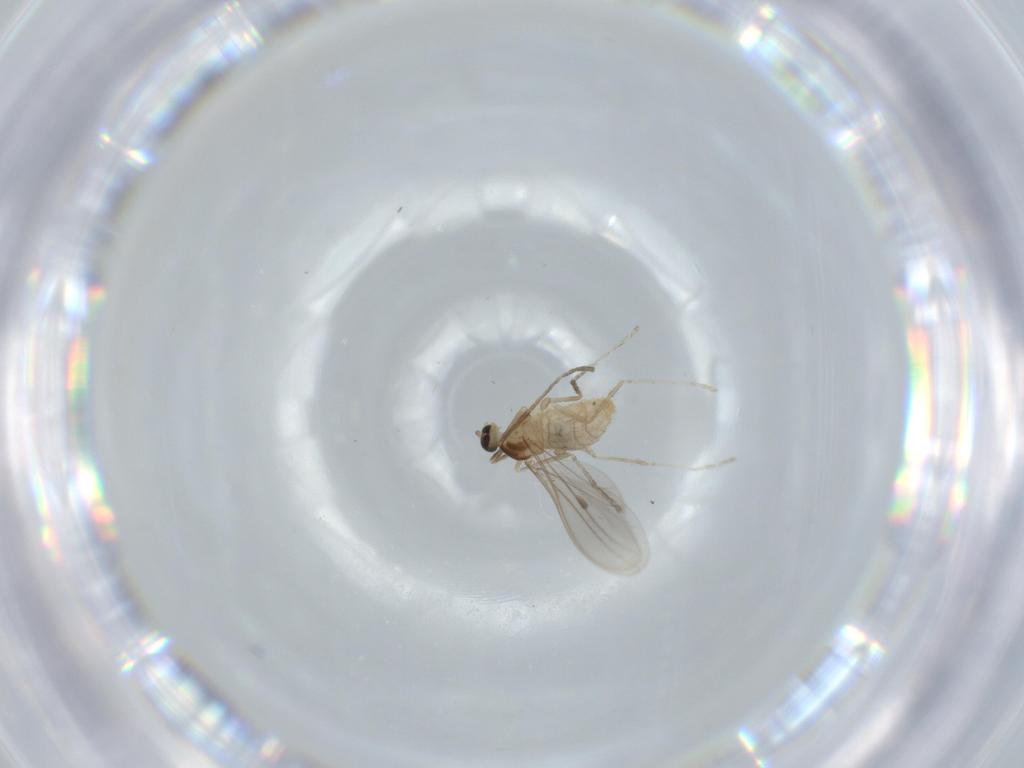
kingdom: Animalia
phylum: Arthropoda
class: Insecta
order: Diptera
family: Cecidomyiidae
